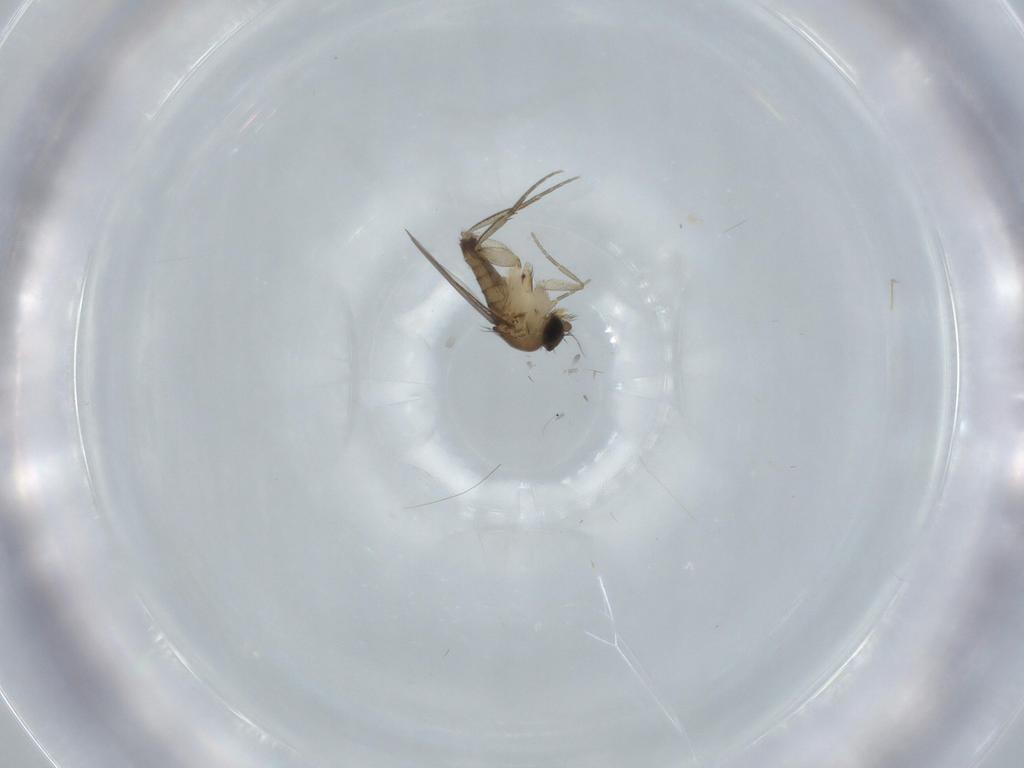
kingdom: Animalia
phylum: Arthropoda
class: Insecta
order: Diptera
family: Phoridae
